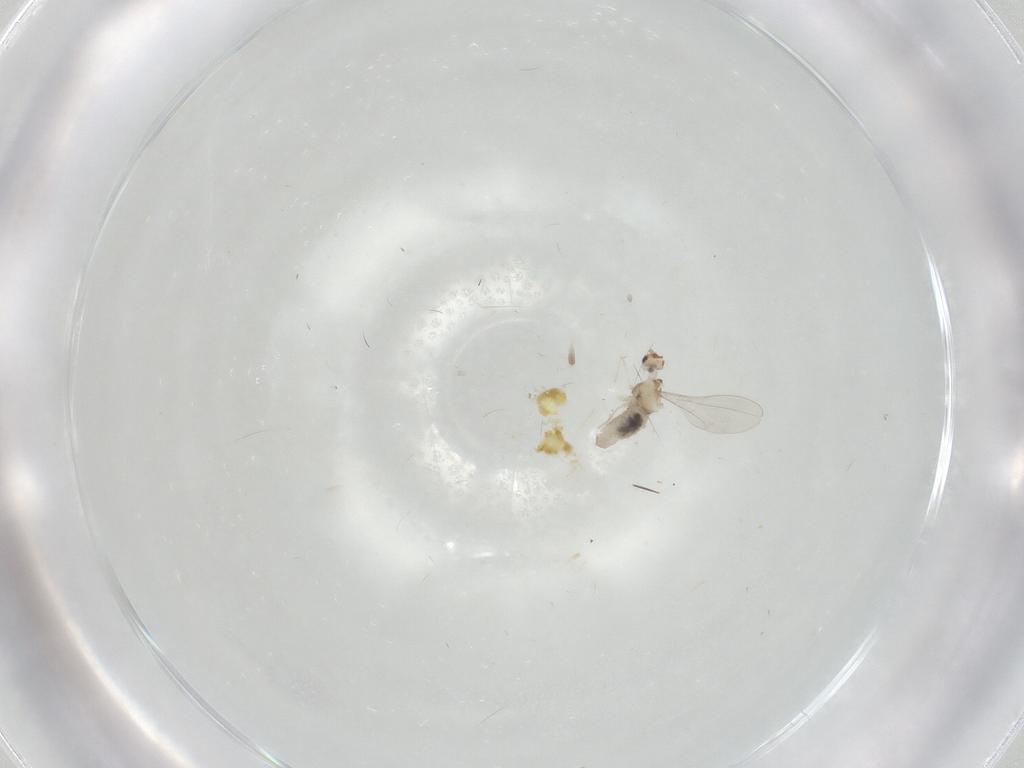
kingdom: Animalia
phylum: Arthropoda
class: Insecta
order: Diptera
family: Cecidomyiidae
